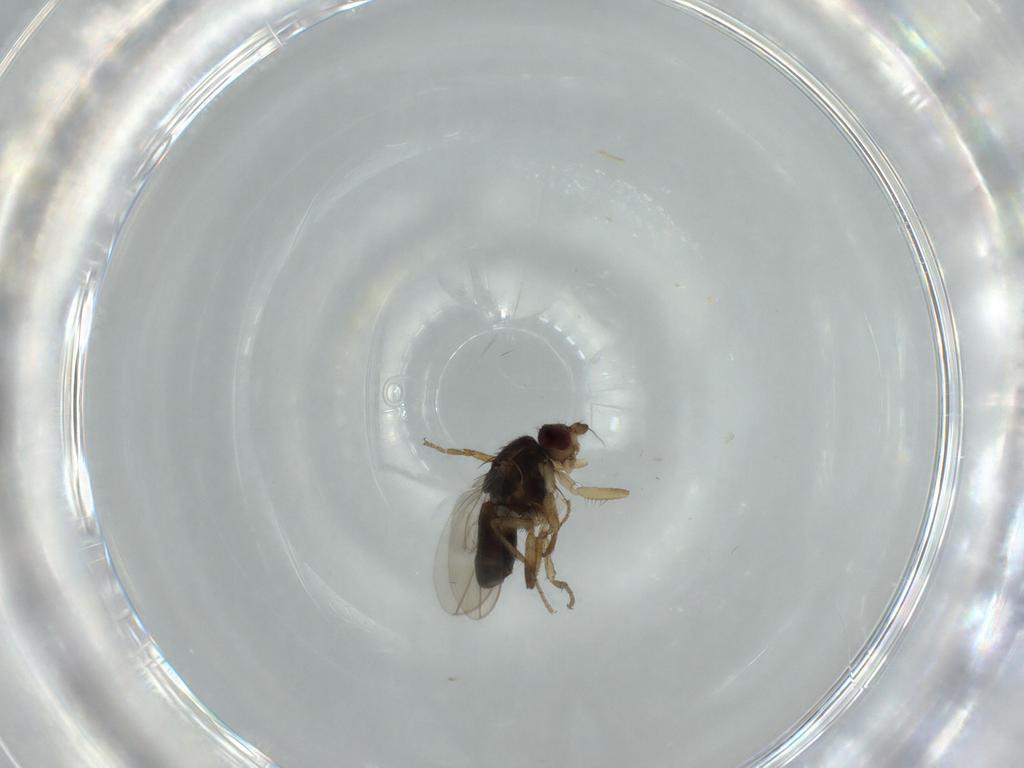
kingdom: Animalia
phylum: Arthropoda
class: Insecta
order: Diptera
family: Sphaeroceridae
